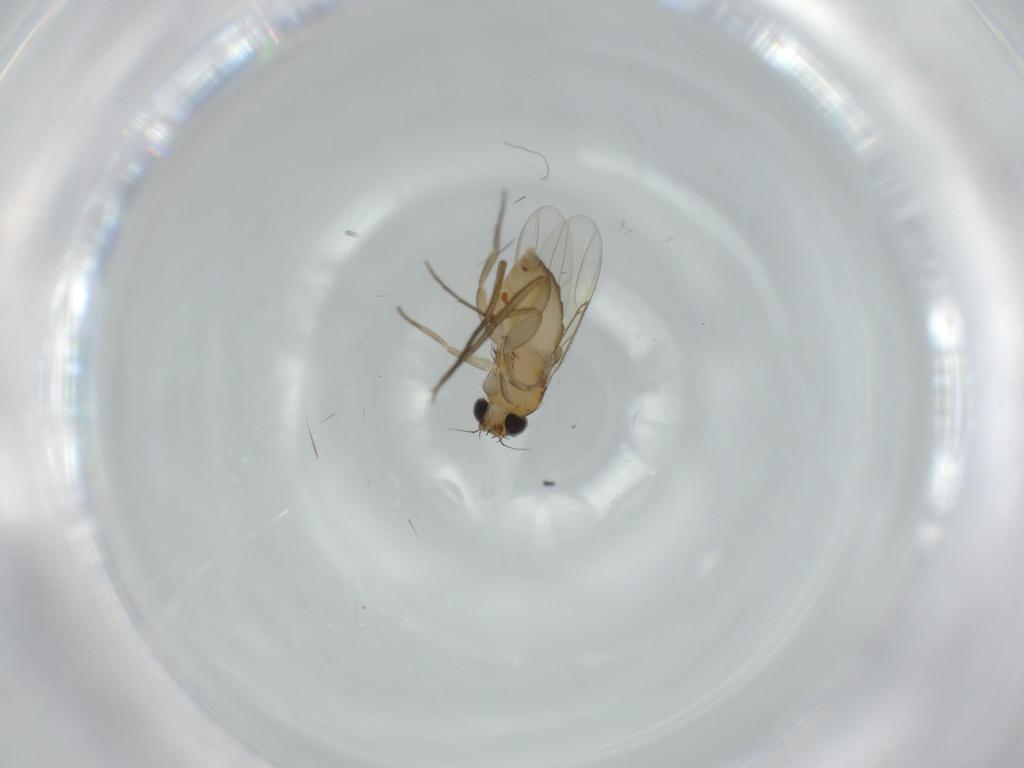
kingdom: Animalia
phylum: Arthropoda
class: Insecta
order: Diptera
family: Phoridae
